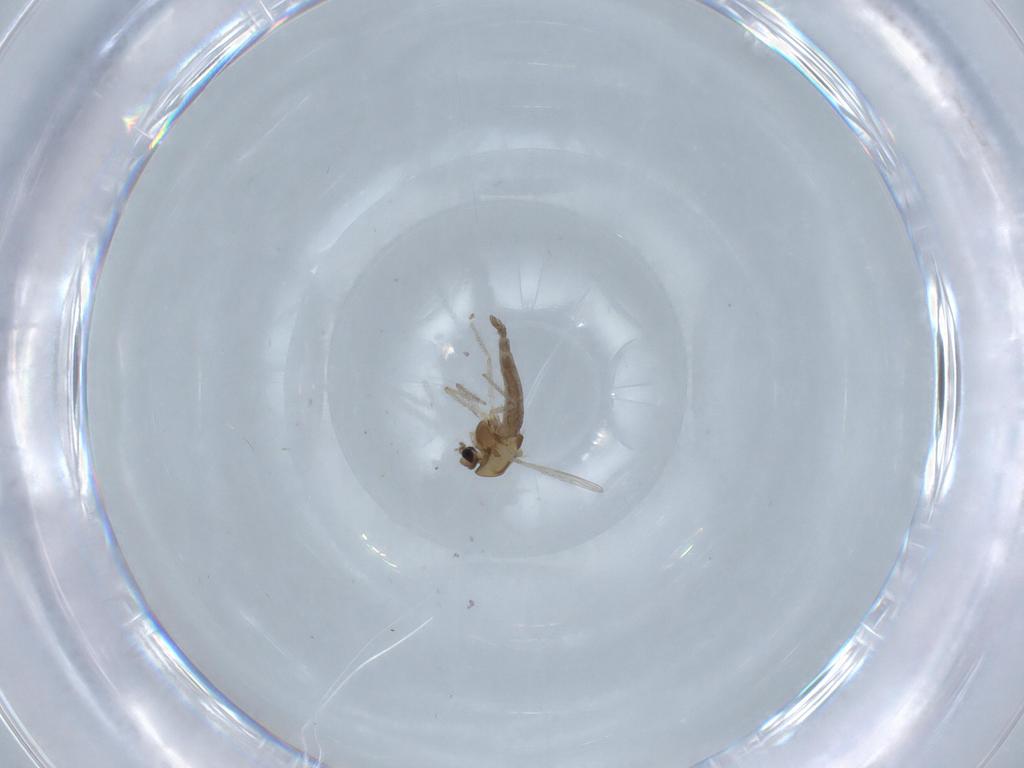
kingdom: Animalia
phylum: Arthropoda
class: Insecta
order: Diptera
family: Chironomidae
